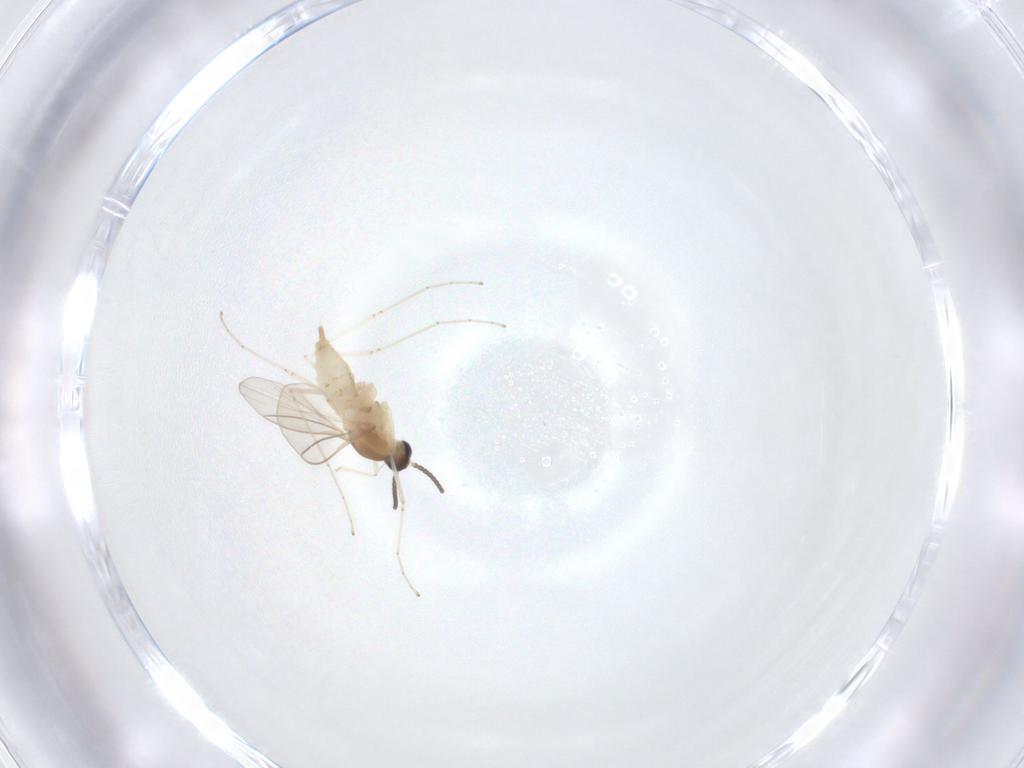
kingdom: Animalia
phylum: Arthropoda
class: Insecta
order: Diptera
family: Cecidomyiidae
